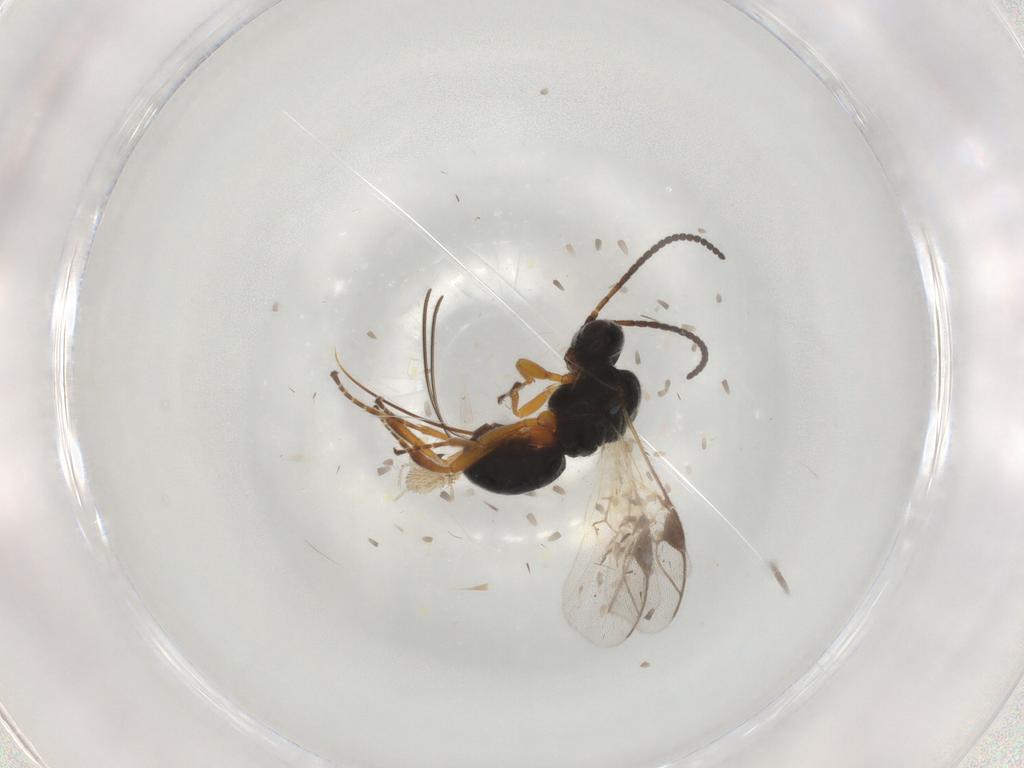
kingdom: Animalia
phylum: Arthropoda
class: Insecta
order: Hymenoptera
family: Braconidae
